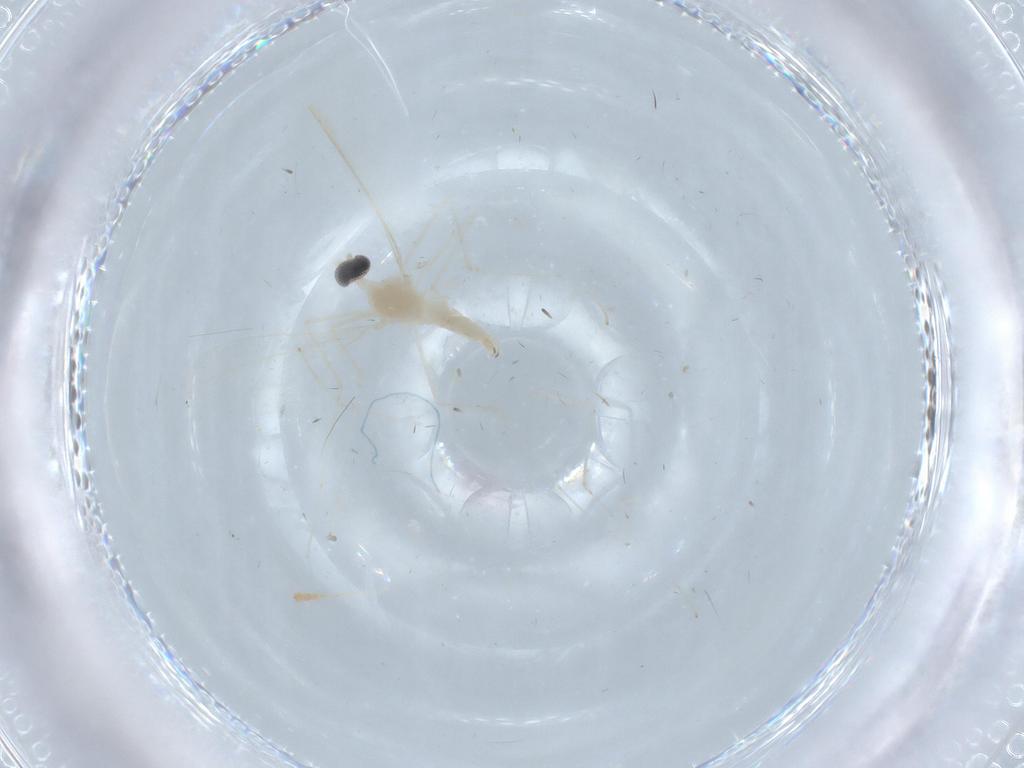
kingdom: Animalia
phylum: Arthropoda
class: Insecta
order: Diptera
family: Cecidomyiidae
